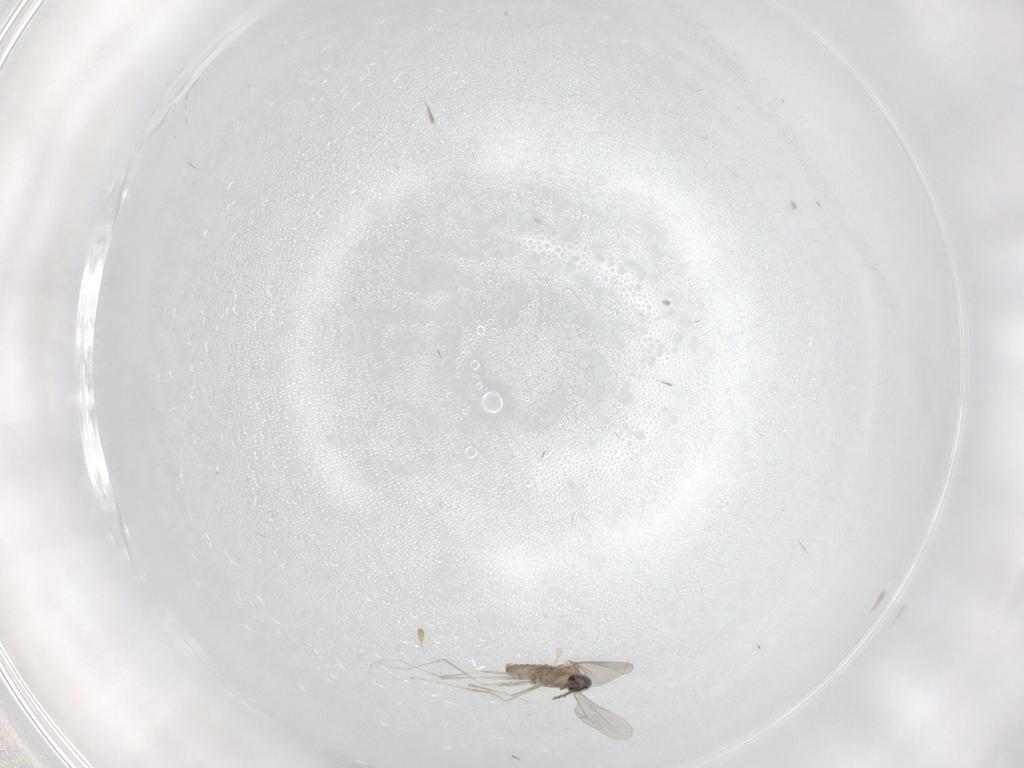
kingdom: Animalia
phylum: Arthropoda
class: Insecta
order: Diptera
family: Cecidomyiidae
